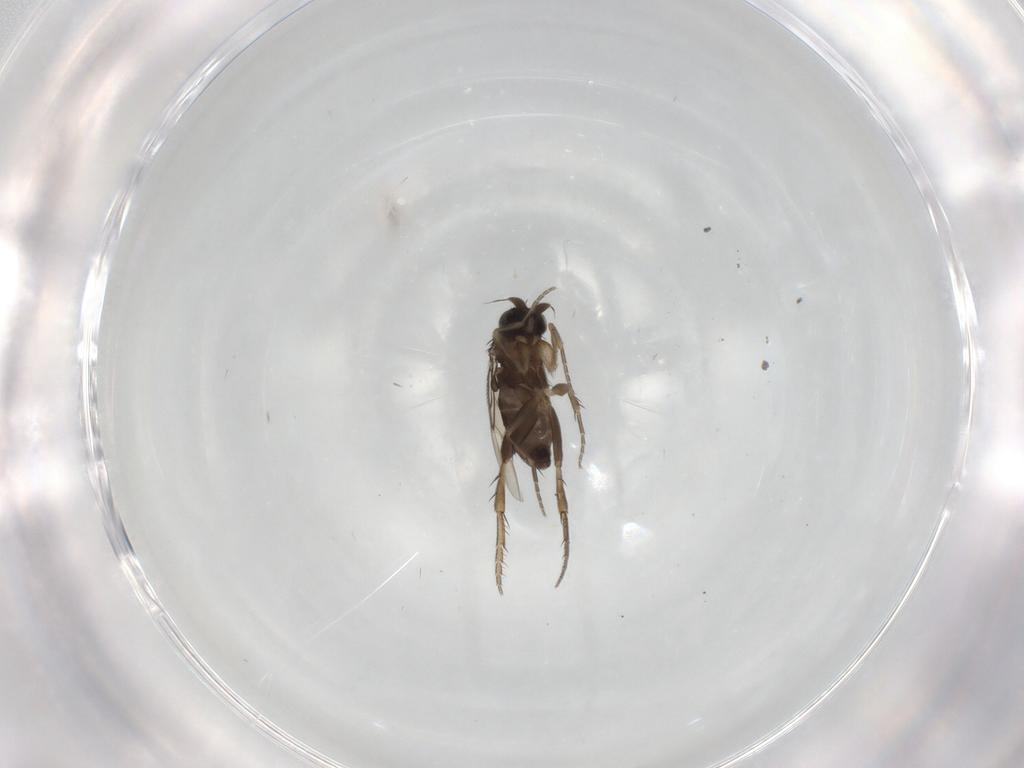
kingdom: Animalia
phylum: Arthropoda
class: Insecta
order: Diptera
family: Phoridae
